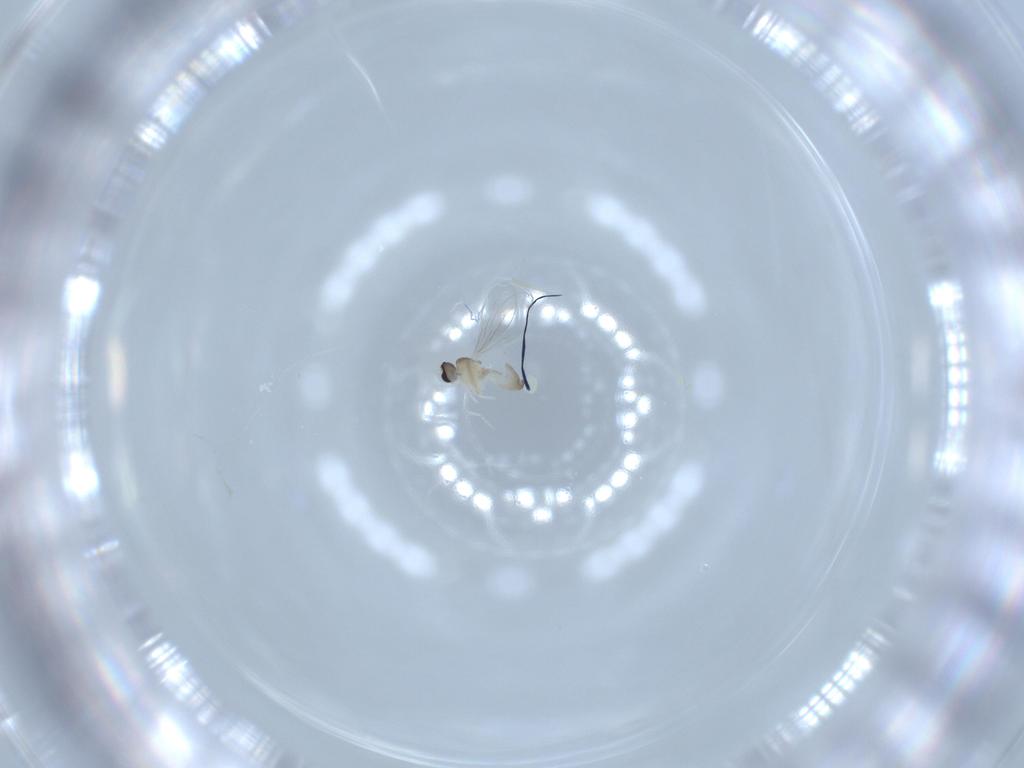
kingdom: Animalia
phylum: Arthropoda
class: Insecta
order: Diptera
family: Cecidomyiidae
